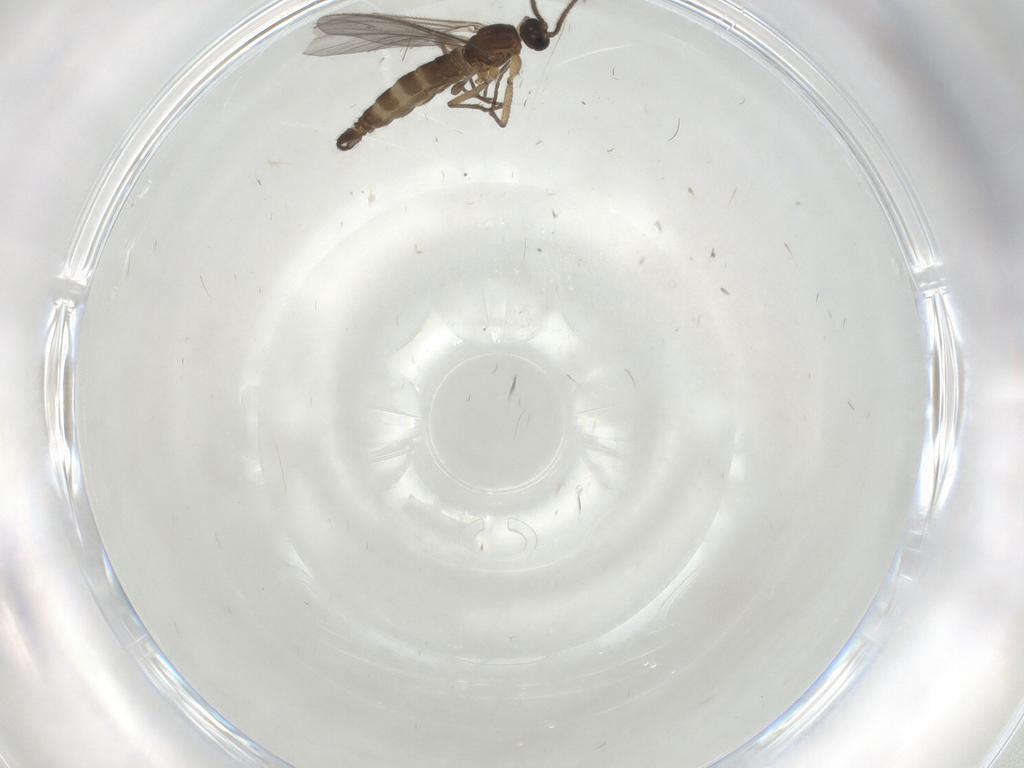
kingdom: Animalia
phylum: Arthropoda
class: Insecta
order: Diptera
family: Sciaridae
